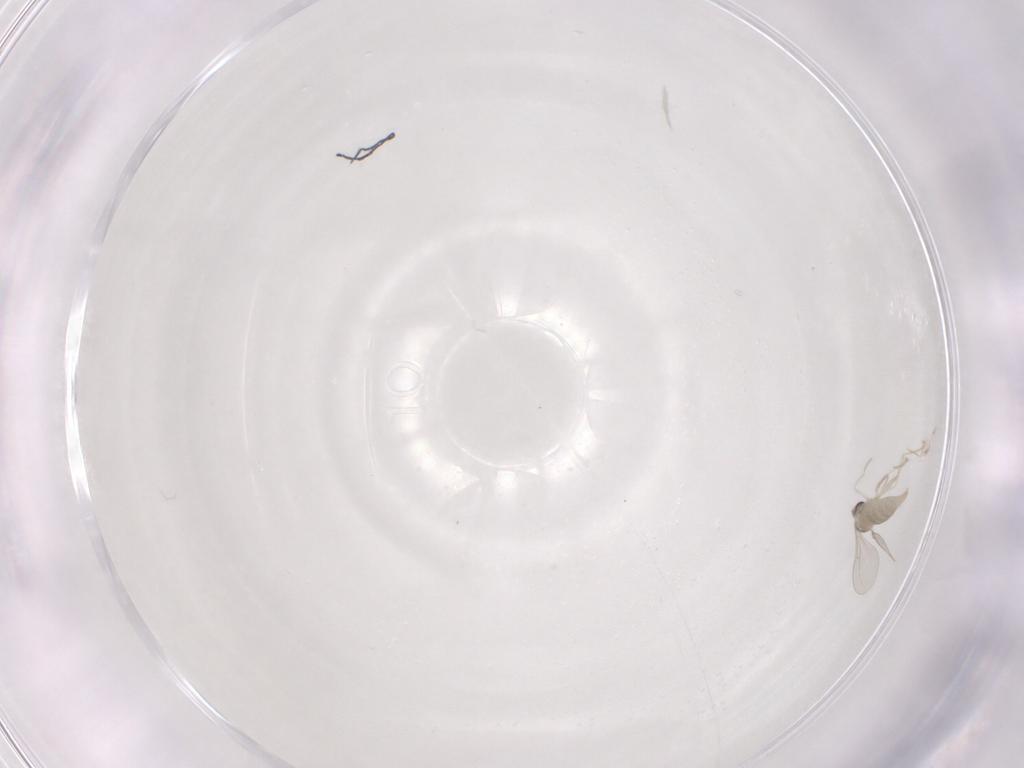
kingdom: Animalia
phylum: Arthropoda
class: Insecta
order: Diptera
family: Cecidomyiidae
